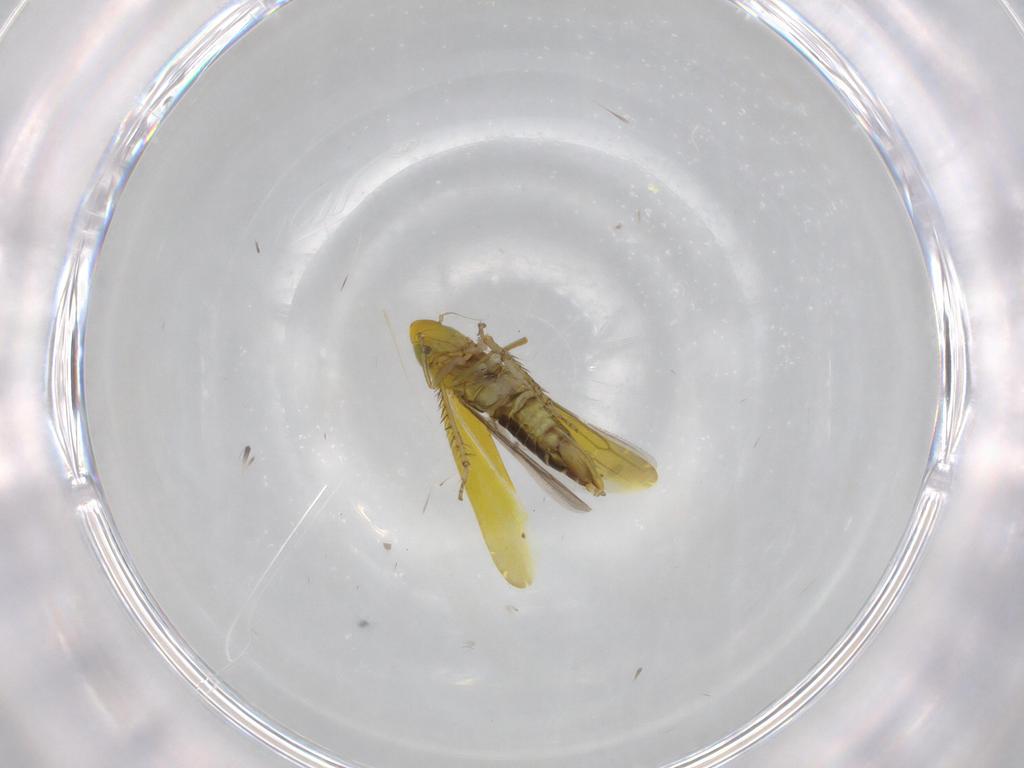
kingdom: Animalia
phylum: Arthropoda
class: Insecta
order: Hemiptera
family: Cicadellidae
